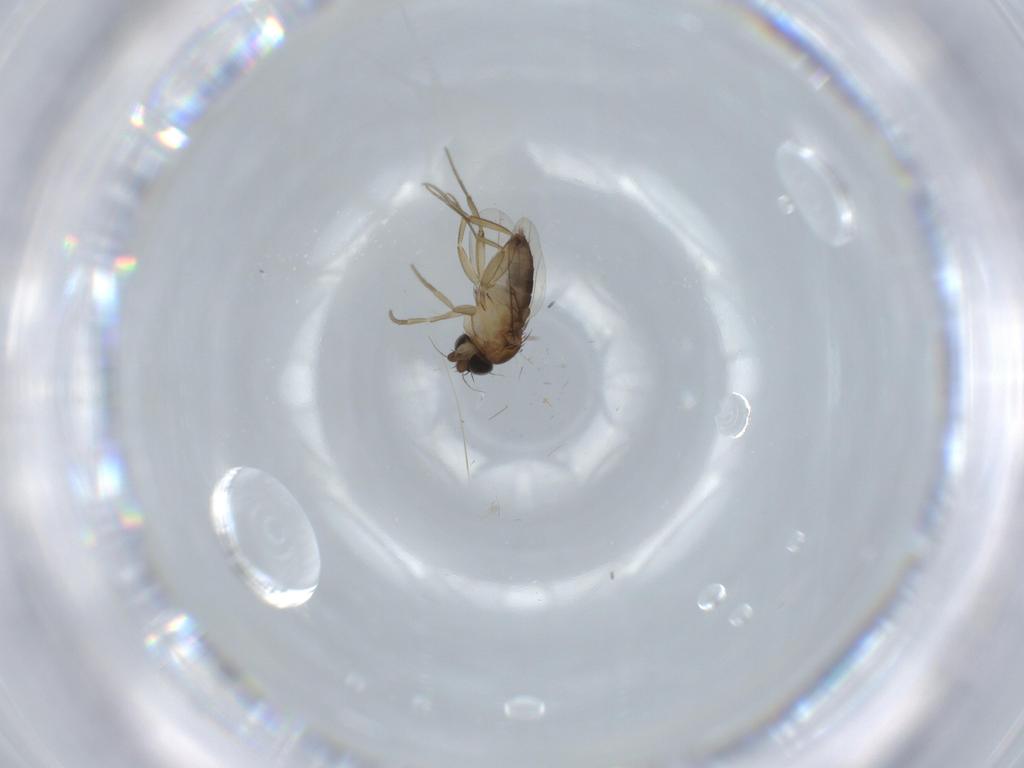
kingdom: Animalia
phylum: Arthropoda
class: Insecta
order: Diptera
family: Phoridae
